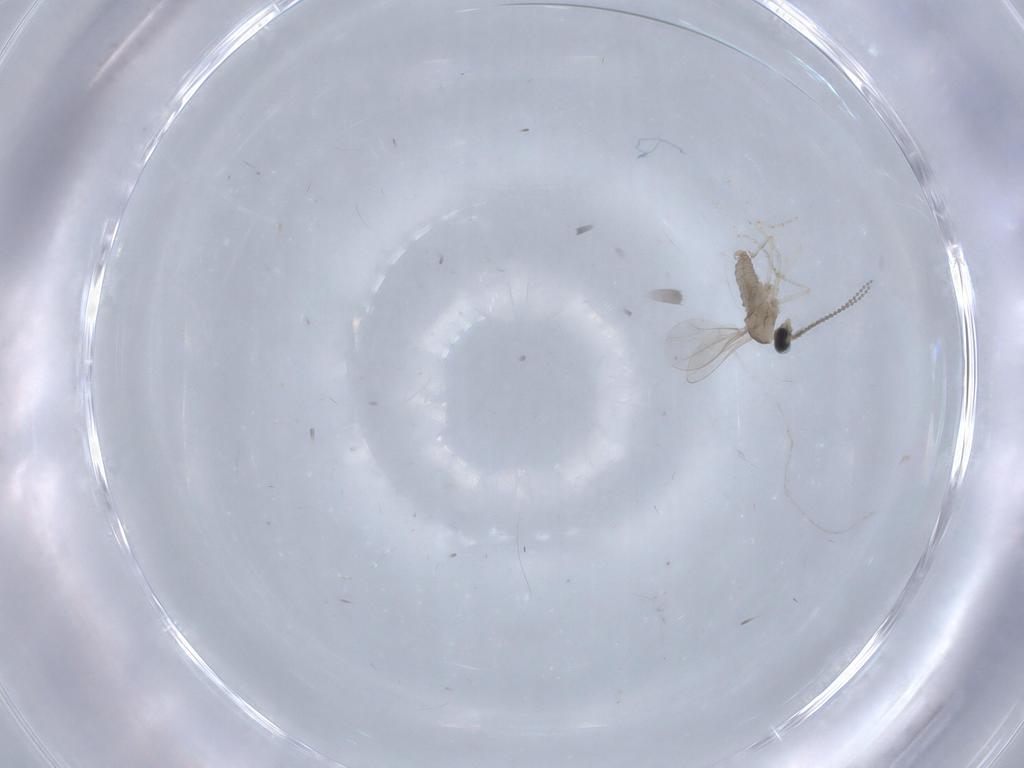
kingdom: Animalia
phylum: Arthropoda
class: Insecta
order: Diptera
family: Cecidomyiidae
